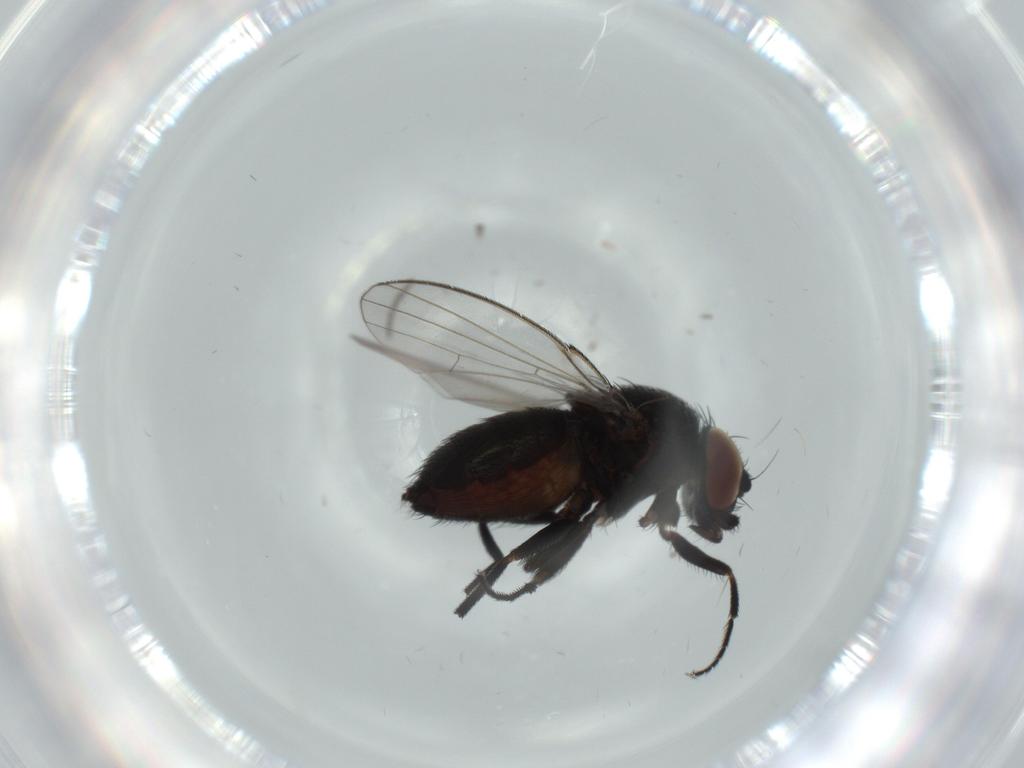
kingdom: Animalia
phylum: Arthropoda
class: Insecta
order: Diptera
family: Milichiidae
